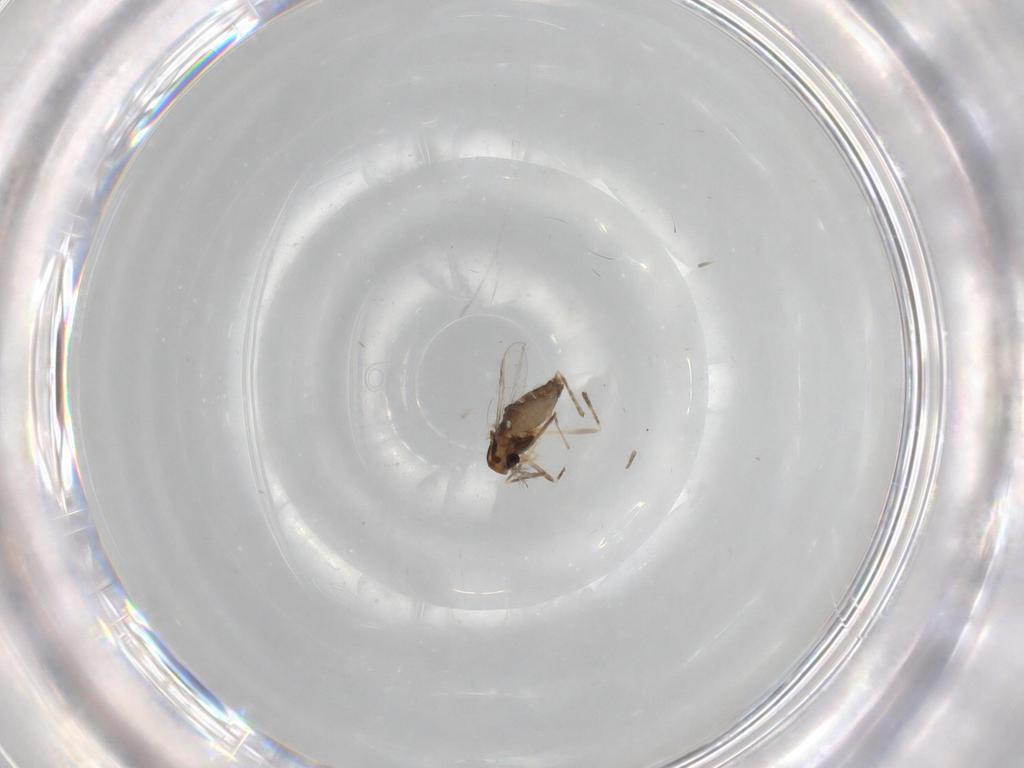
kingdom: Animalia
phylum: Arthropoda
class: Insecta
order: Diptera
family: Chironomidae
